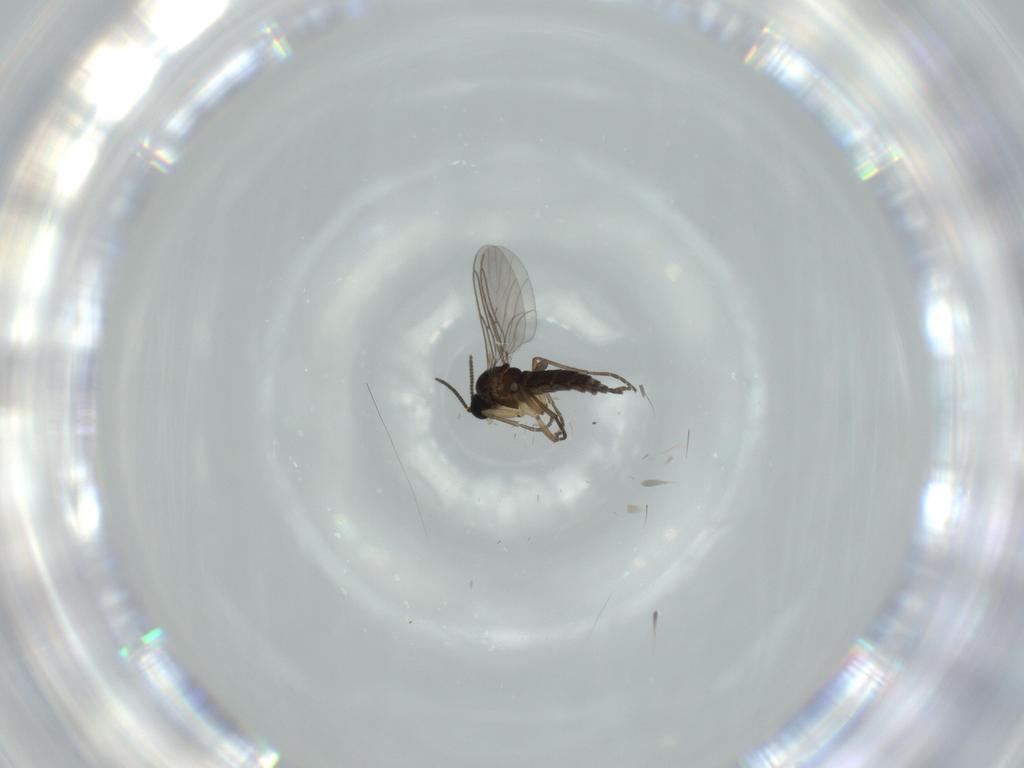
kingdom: Animalia
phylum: Arthropoda
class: Insecta
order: Diptera
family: Sciaridae
